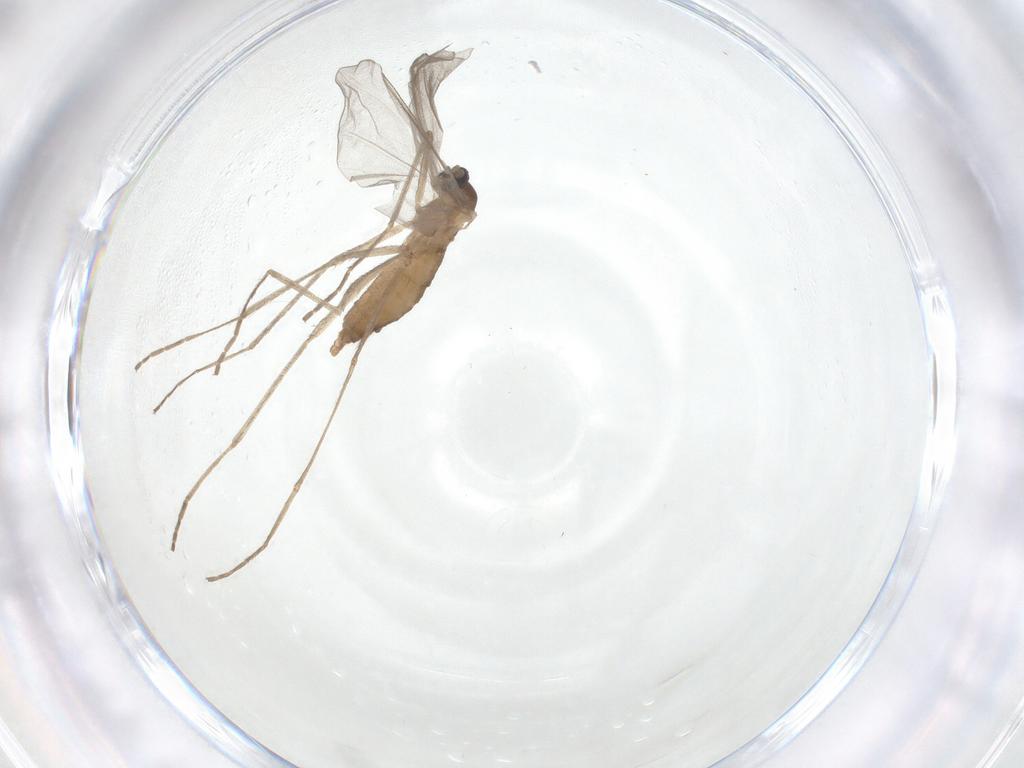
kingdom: Animalia
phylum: Arthropoda
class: Insecta
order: Diptera
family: Cecidomyiidae
